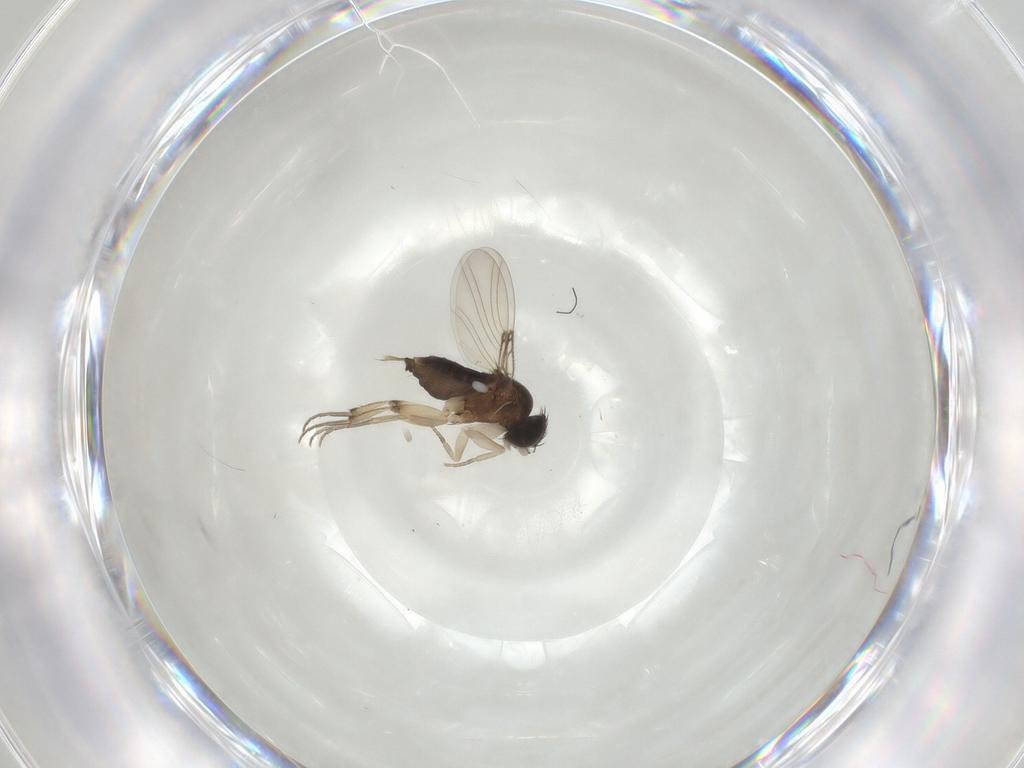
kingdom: Animalia
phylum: Arthropoda
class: Insecta
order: Diptera
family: Phoridae
